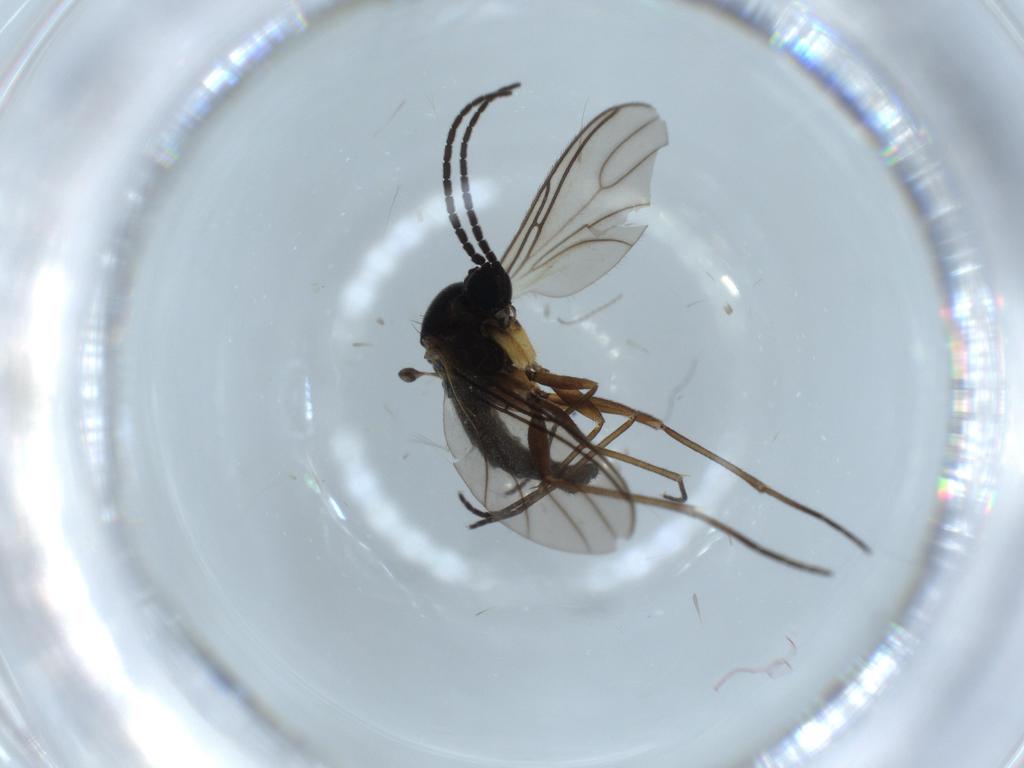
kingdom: Animalia
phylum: Arthropoda
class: Insecta
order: Diptera
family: Sciaridae
